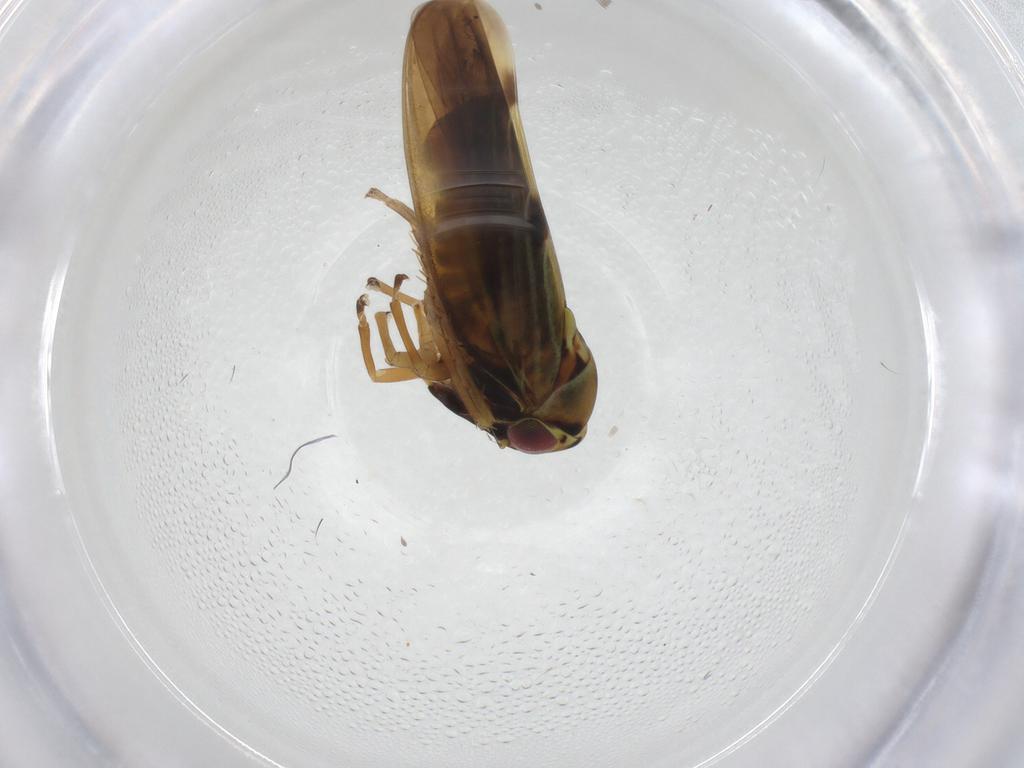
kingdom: Animalia
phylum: Arthropoda
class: Insecta
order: Hemiptera
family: Cicadellidae
